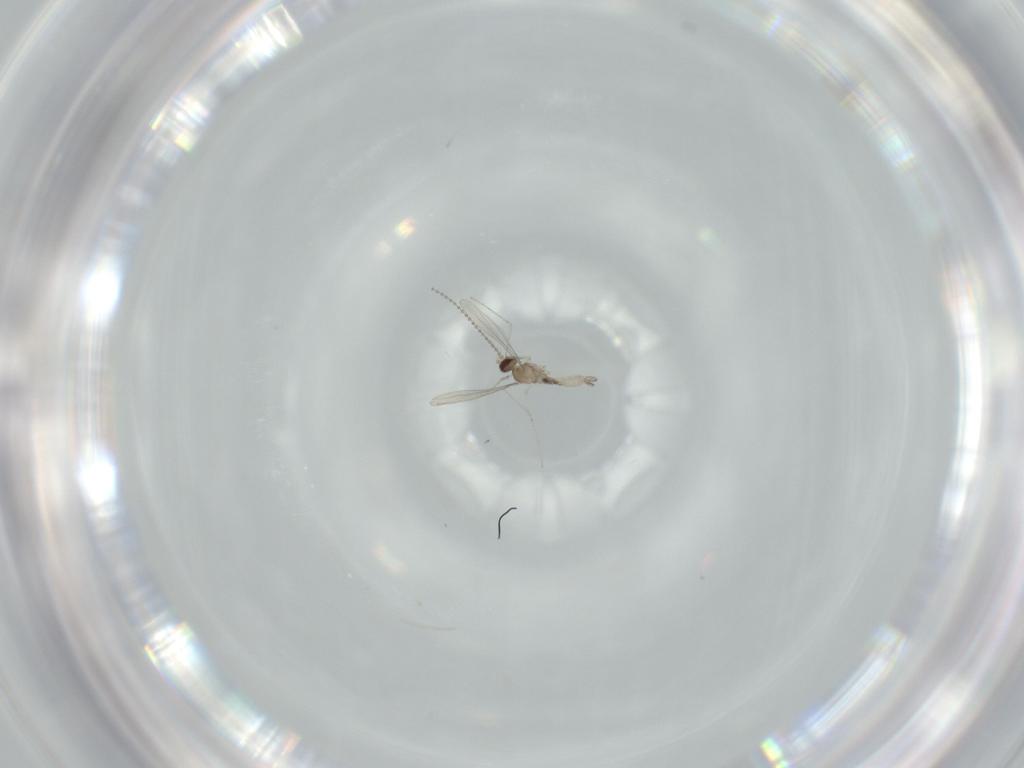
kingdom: Animalia
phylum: Arthropoda
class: Insecta
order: Diptera
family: Cecidomyiidae
